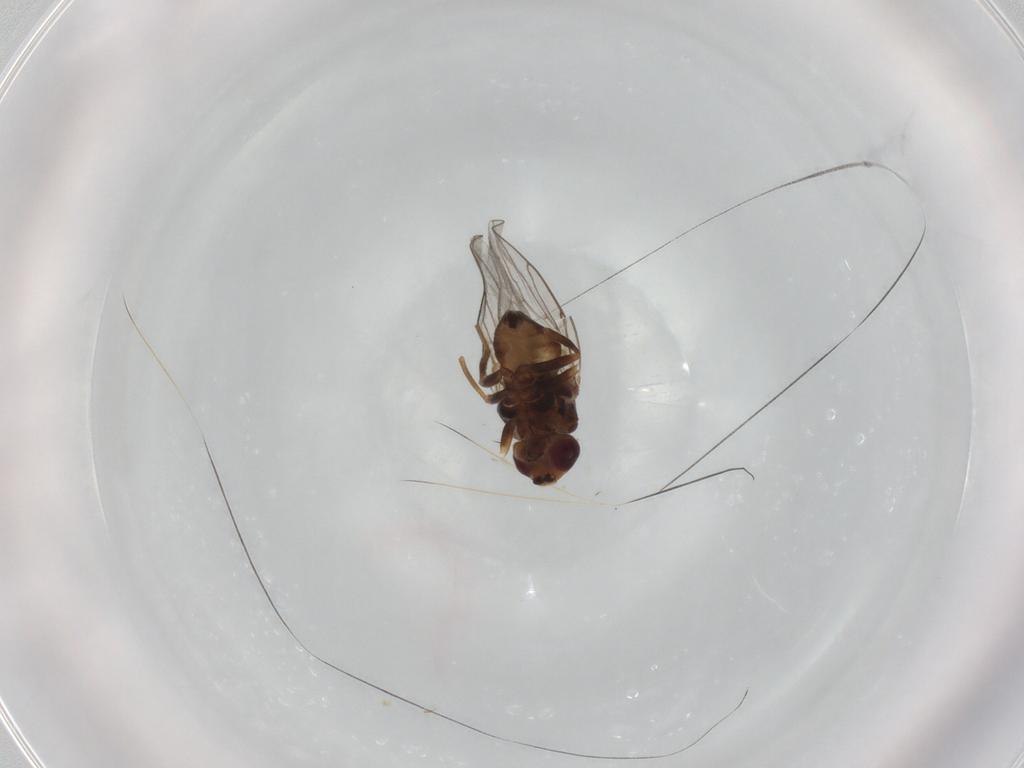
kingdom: Animalia
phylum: Arthropoda
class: Insecta
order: Diptera
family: Chloropidae
